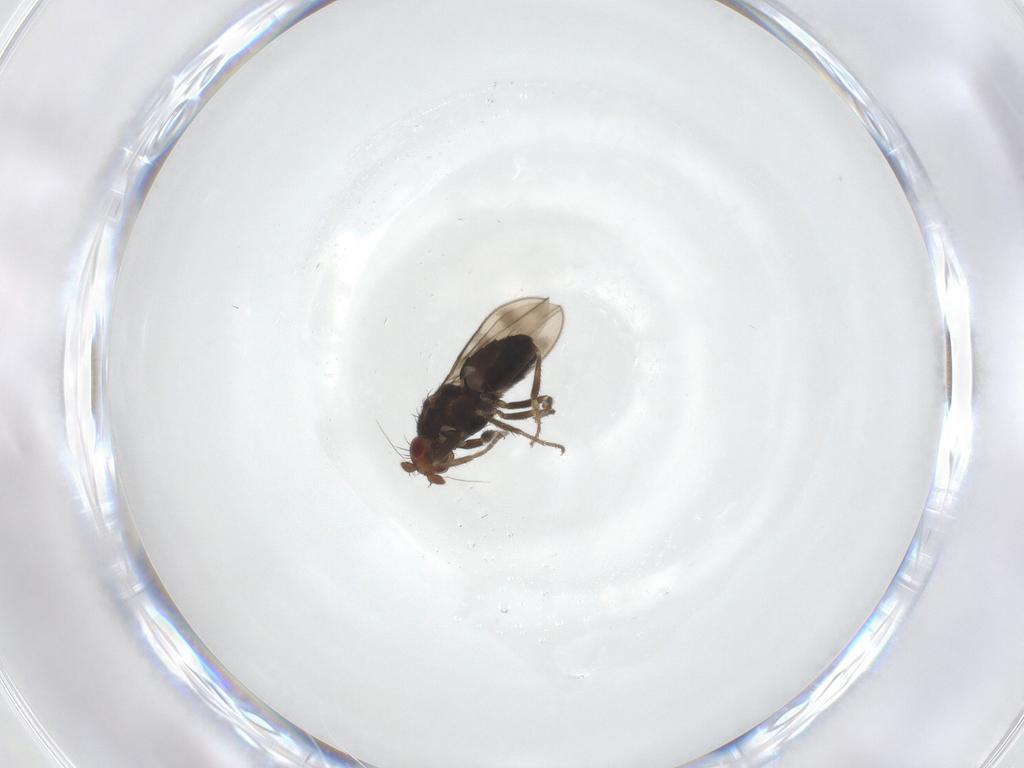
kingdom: Animalia
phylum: Arthropoda
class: Insecta
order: Diptera
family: Sphaeroceridae
